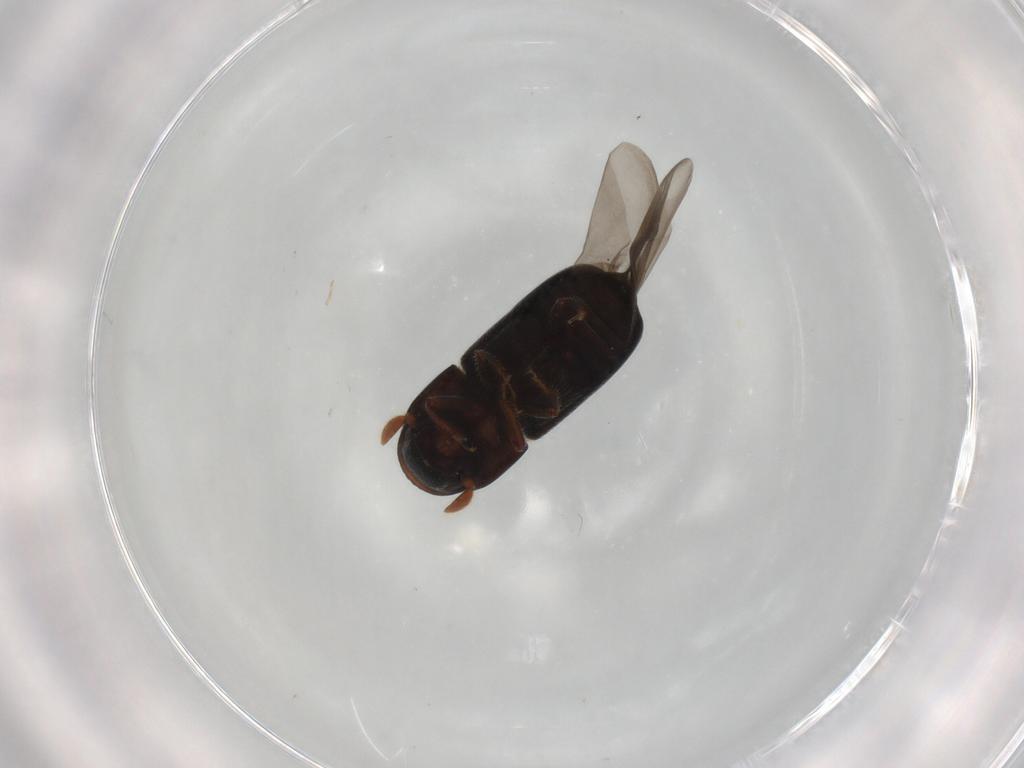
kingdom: Animalia
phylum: Arthropoda
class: Insecta
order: Coleoptera
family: Curculionidae
